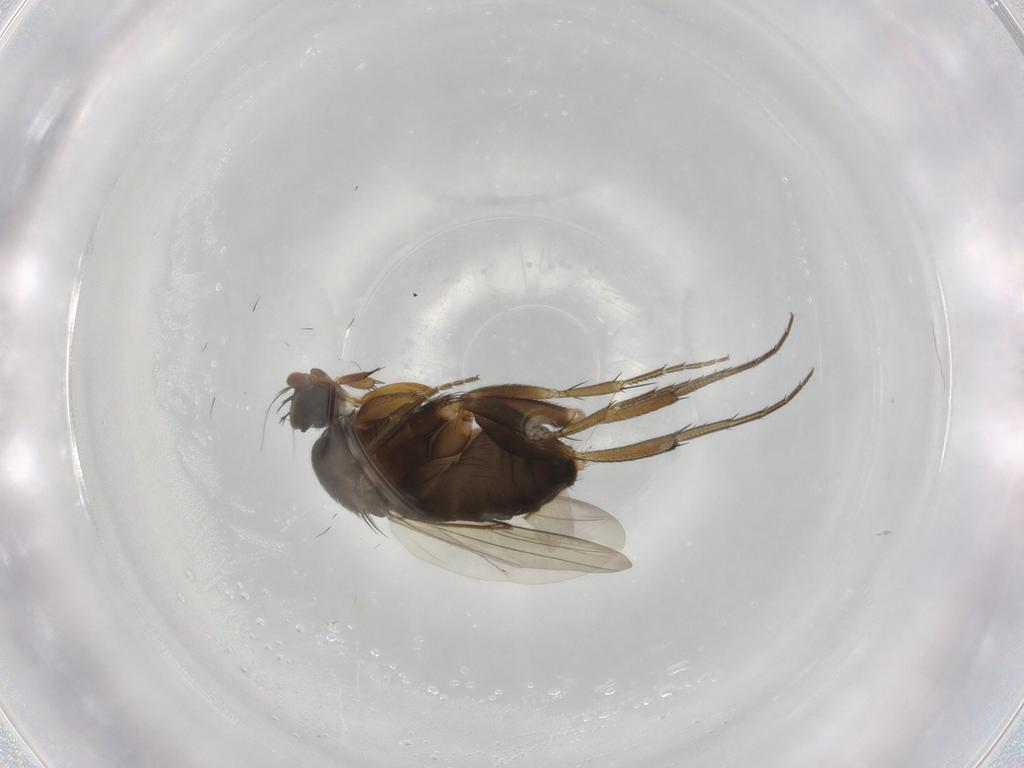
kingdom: Animalia
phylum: Arthropoda
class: Insecta
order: Diptera
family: Phoridae
